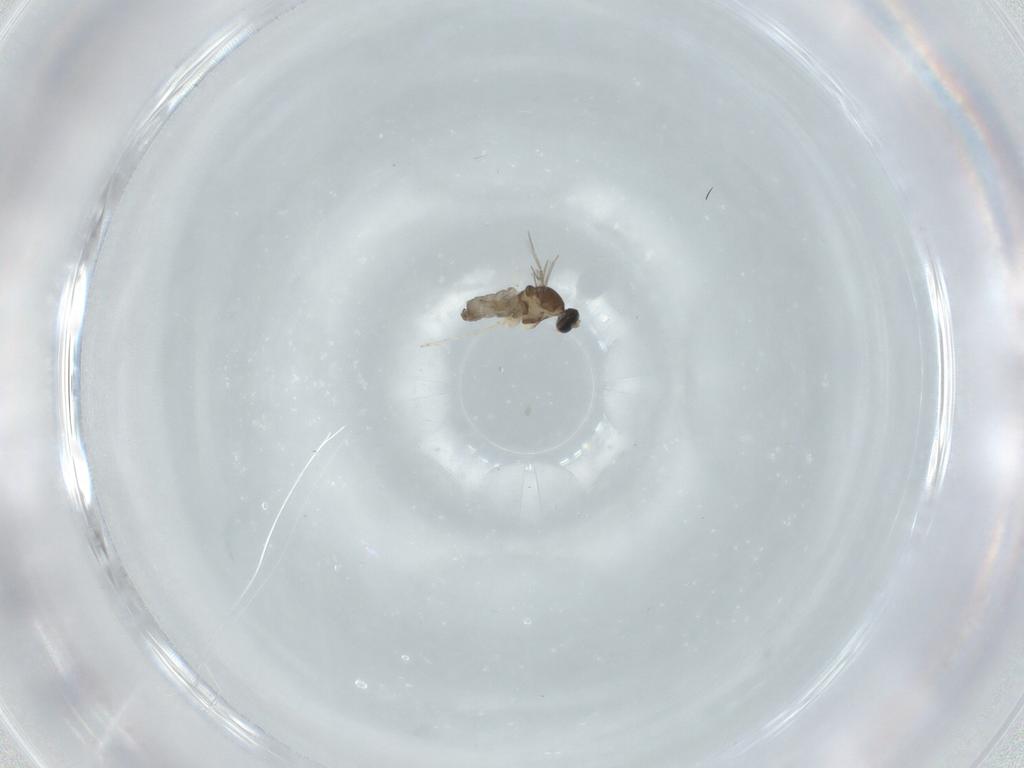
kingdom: Animalia
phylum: Arthropoda
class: Insecta
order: Diptera
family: Cecidomyiidae
